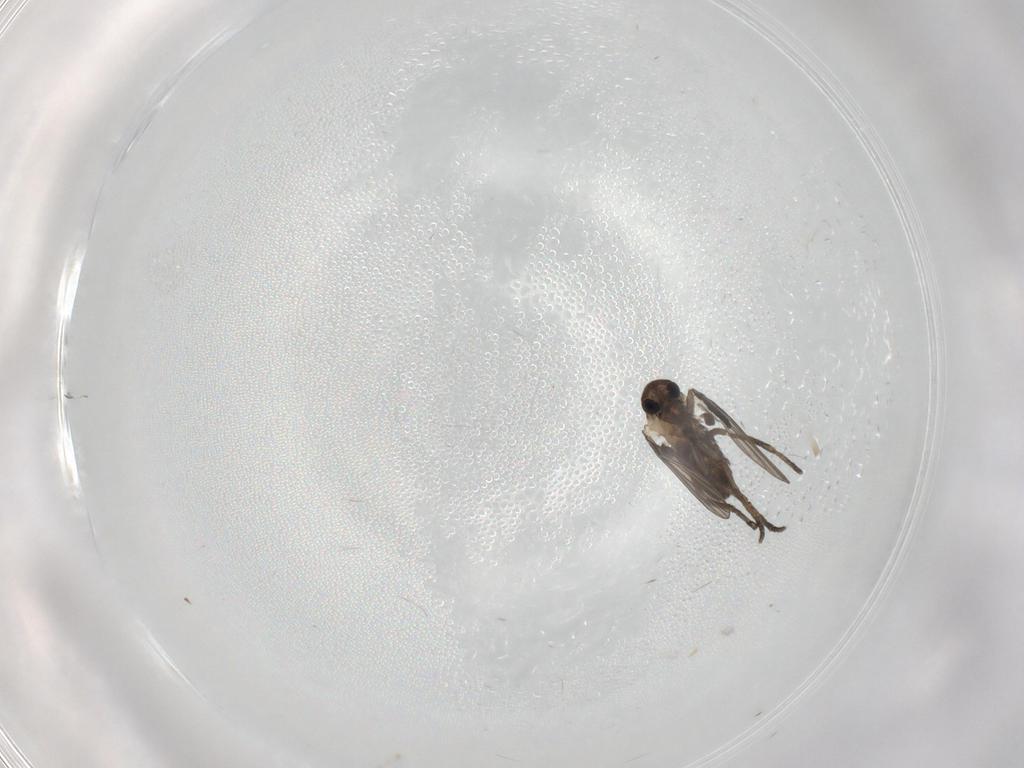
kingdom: Animalia
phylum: Arthropoda
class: Insecta
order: Diptera
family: Psychodidae
